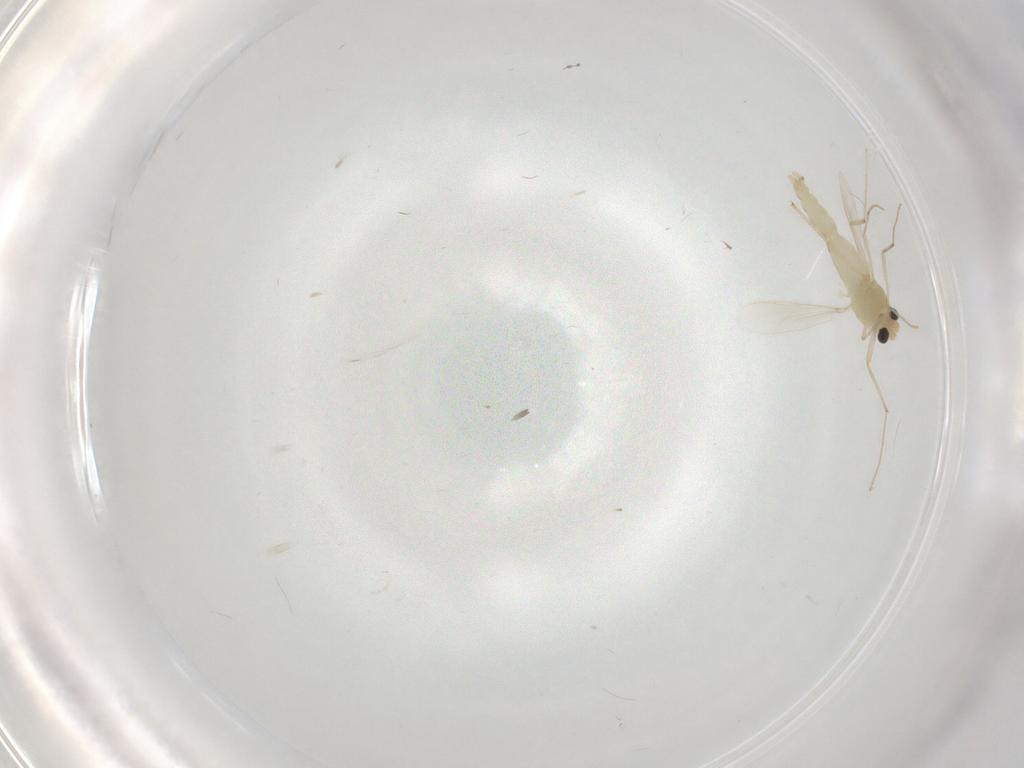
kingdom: Animalia
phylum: Arthropoda
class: Insecta
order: Diptera
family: Chironomidae
